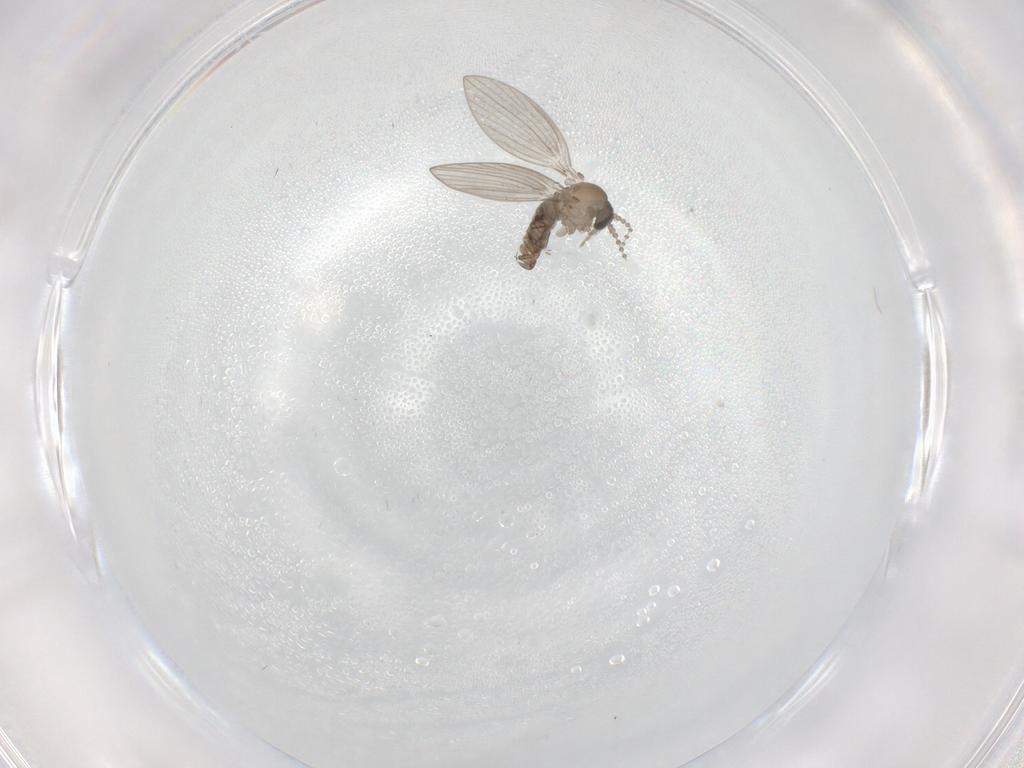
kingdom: Animalia
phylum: Arthropoda
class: Insecta
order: Diptera
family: Psychodidae
